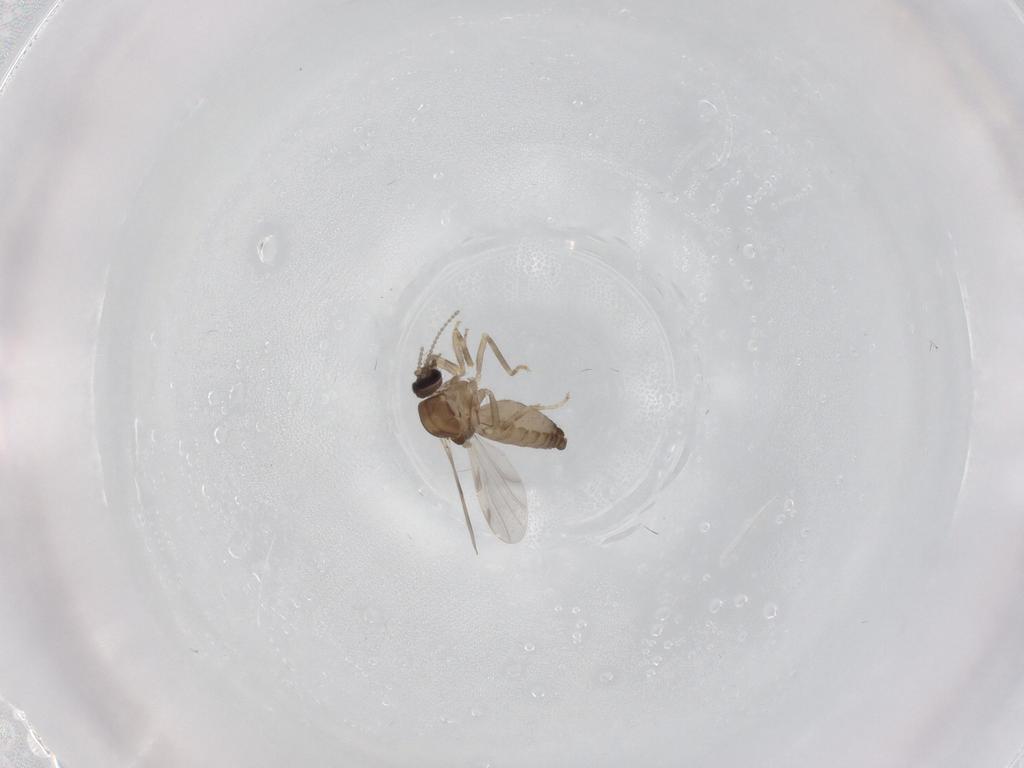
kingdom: Animalia
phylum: Arthropoda
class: Insecta
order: Diptera
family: Ceratopogonidae
